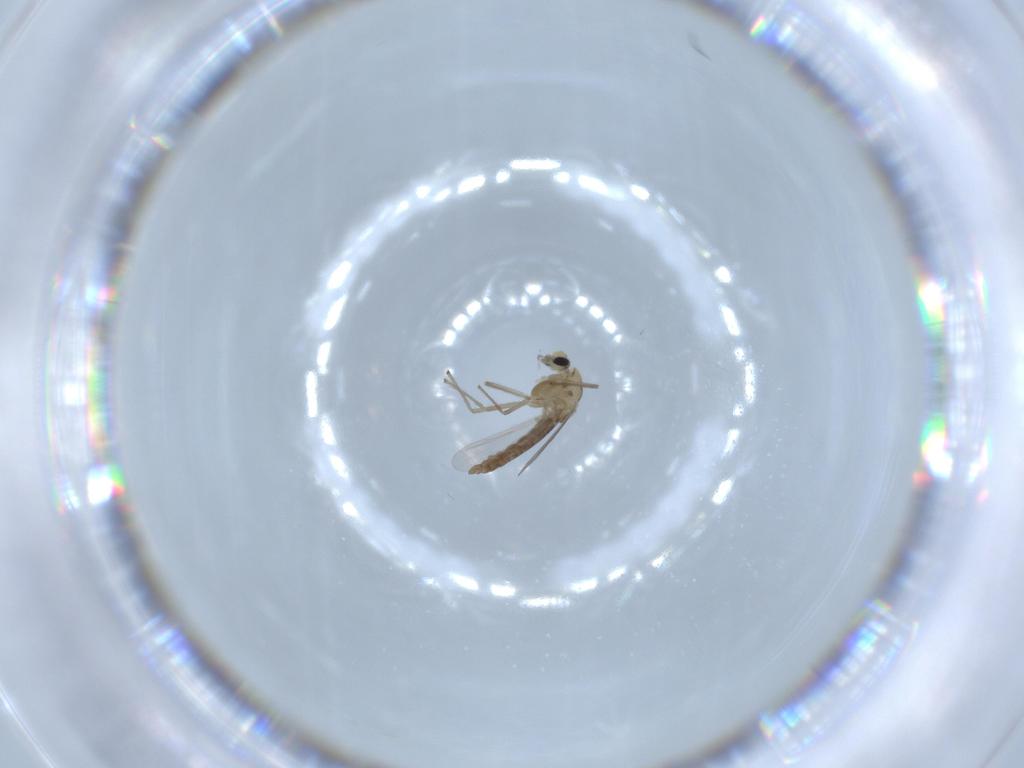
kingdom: Animalia
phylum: Arthropoda
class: Insecta
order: Diptera
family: Chironomidae
